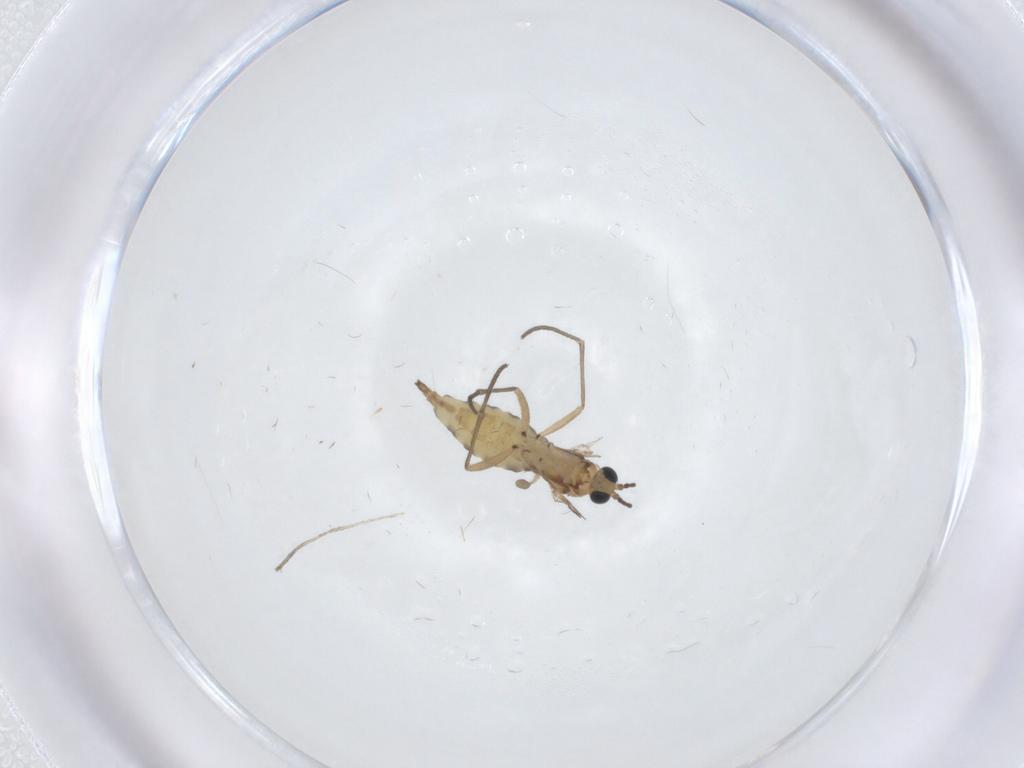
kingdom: Animalia
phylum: Arthropoda
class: Insecta
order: Diptera
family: Sciaridae
